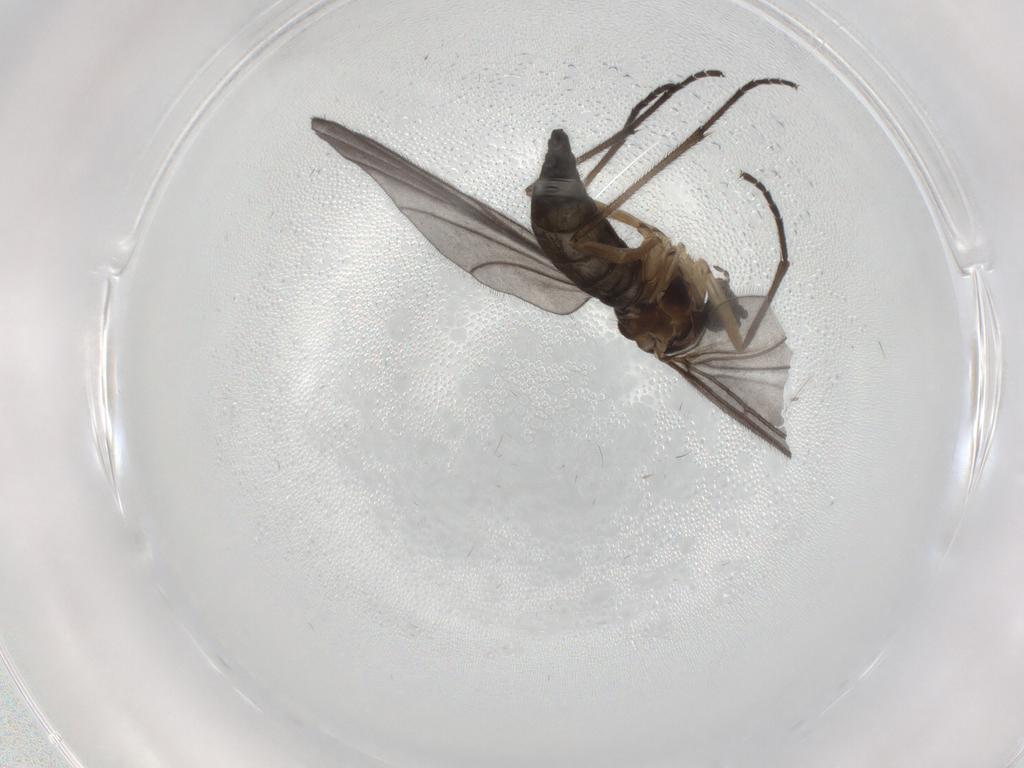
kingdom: Animalia
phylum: Arthropoda
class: Insecta
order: Diptera
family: Sciaridae
